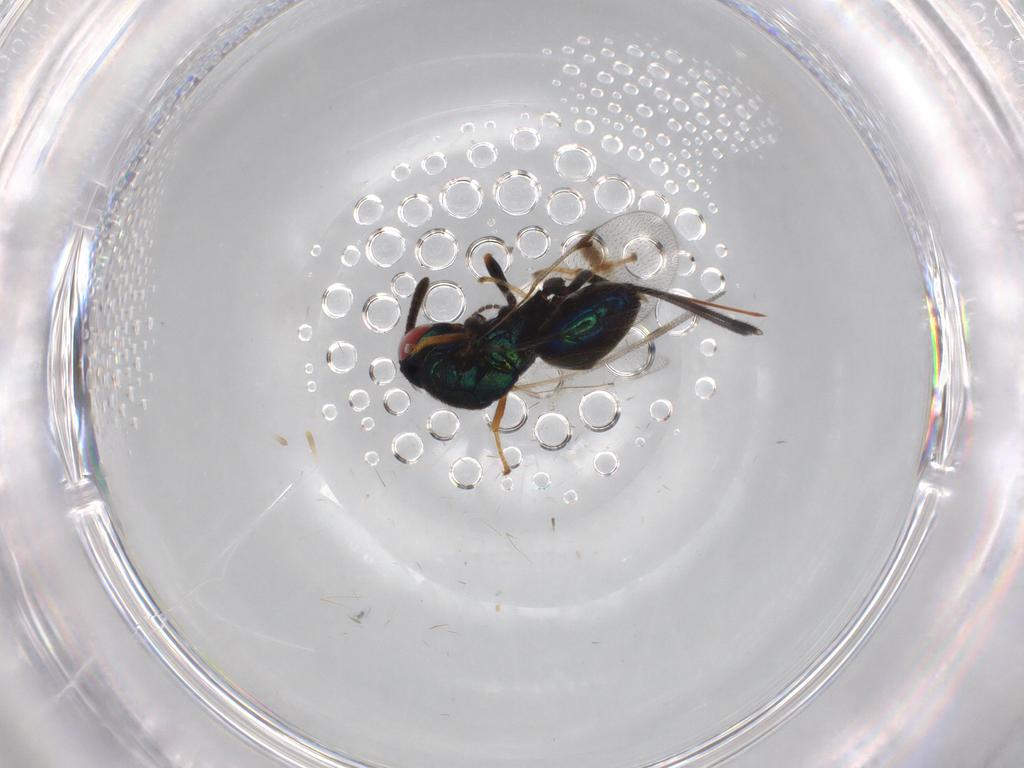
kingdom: Animalia
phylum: Arthropoda
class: Insecta
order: Hymenoptera
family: Torymidae
